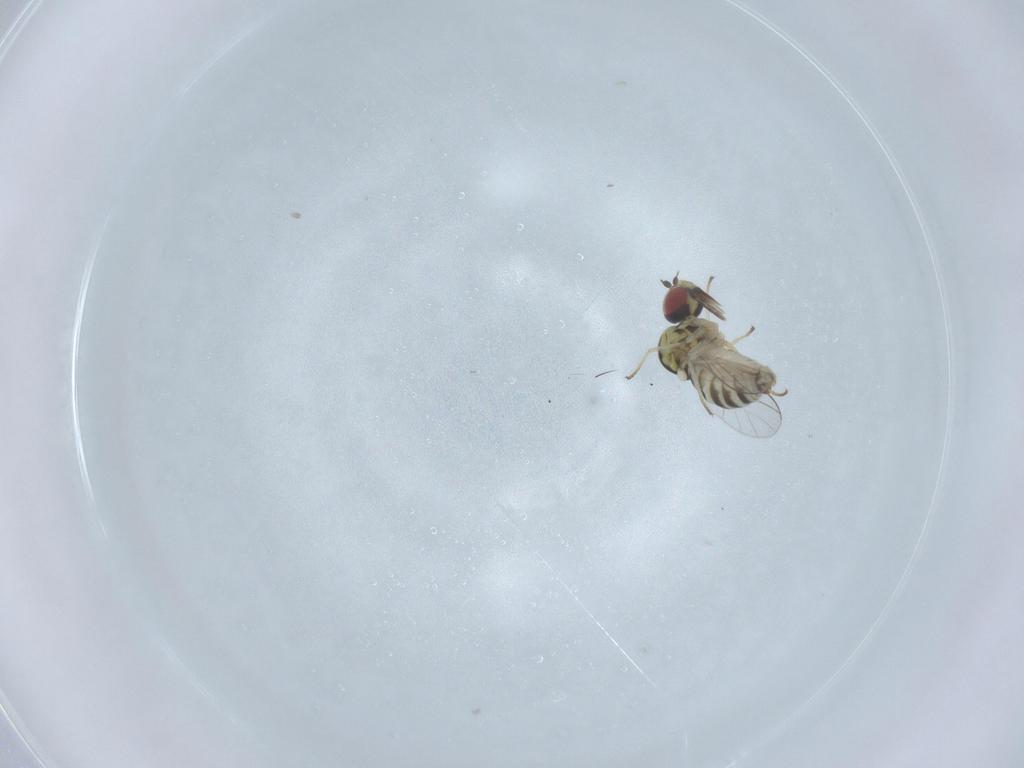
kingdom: Animalia
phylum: Arthropoda
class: Insecta
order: Diptera
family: Bombyliidae
